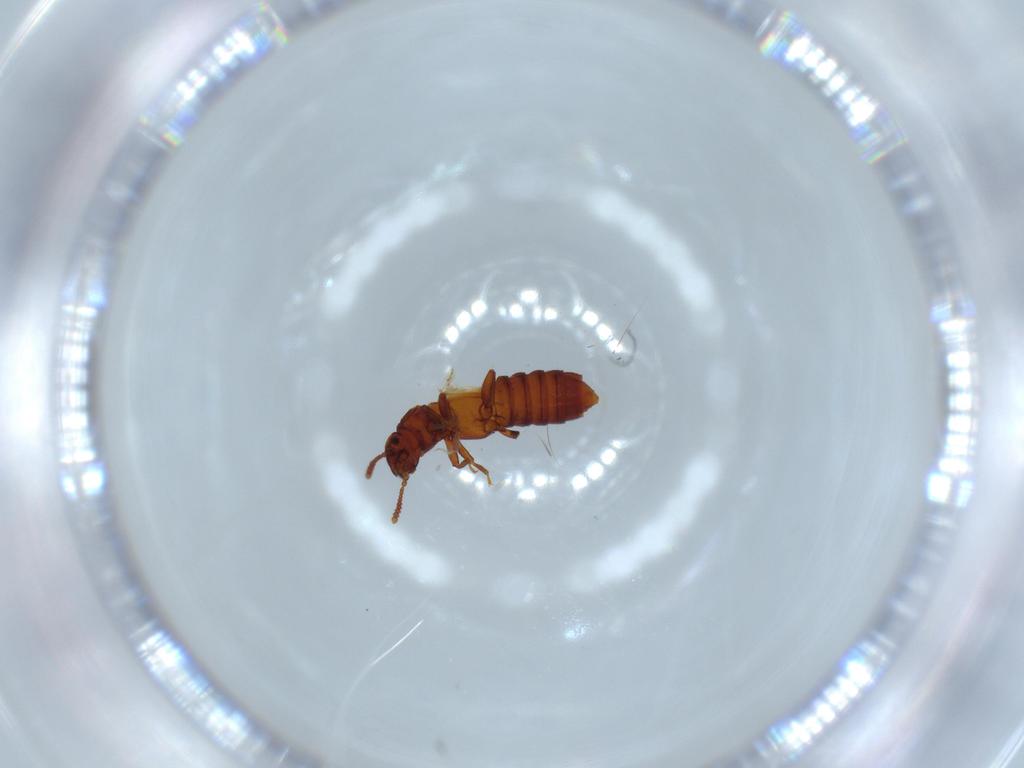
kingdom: Animalia
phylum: Arthropoda
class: Insecta
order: Coleoptera
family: Staphylinidae
